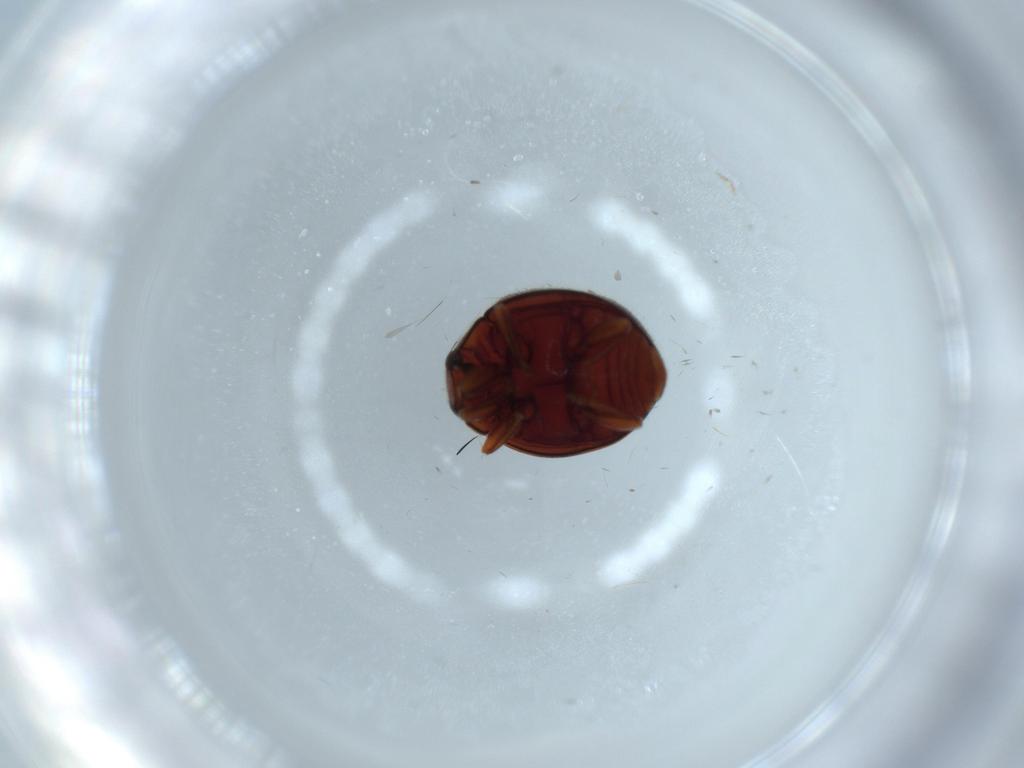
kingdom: Animalia
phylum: Arthropoda
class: Insecta
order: Coleoptera
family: Coccinellidae
